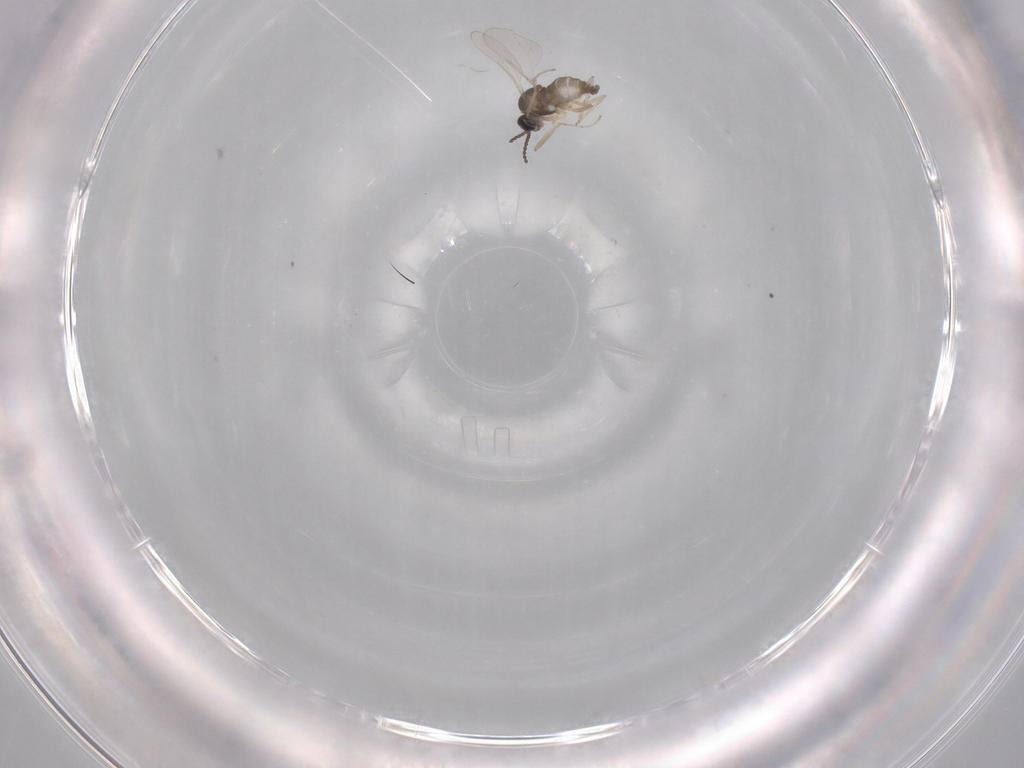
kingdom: Animalia
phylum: Arthropoda
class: Insecta
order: Diptera
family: Cecidomyiidae
